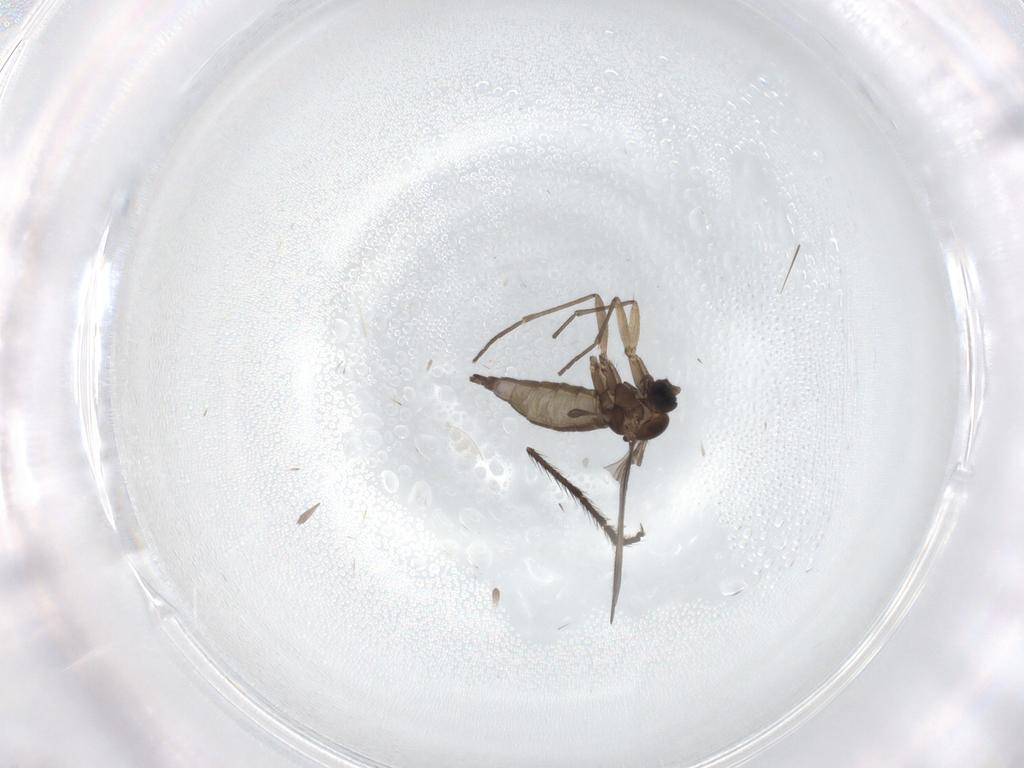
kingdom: Animalia
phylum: Arthropoda
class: Insecta
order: Diptera
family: Sciaridae
